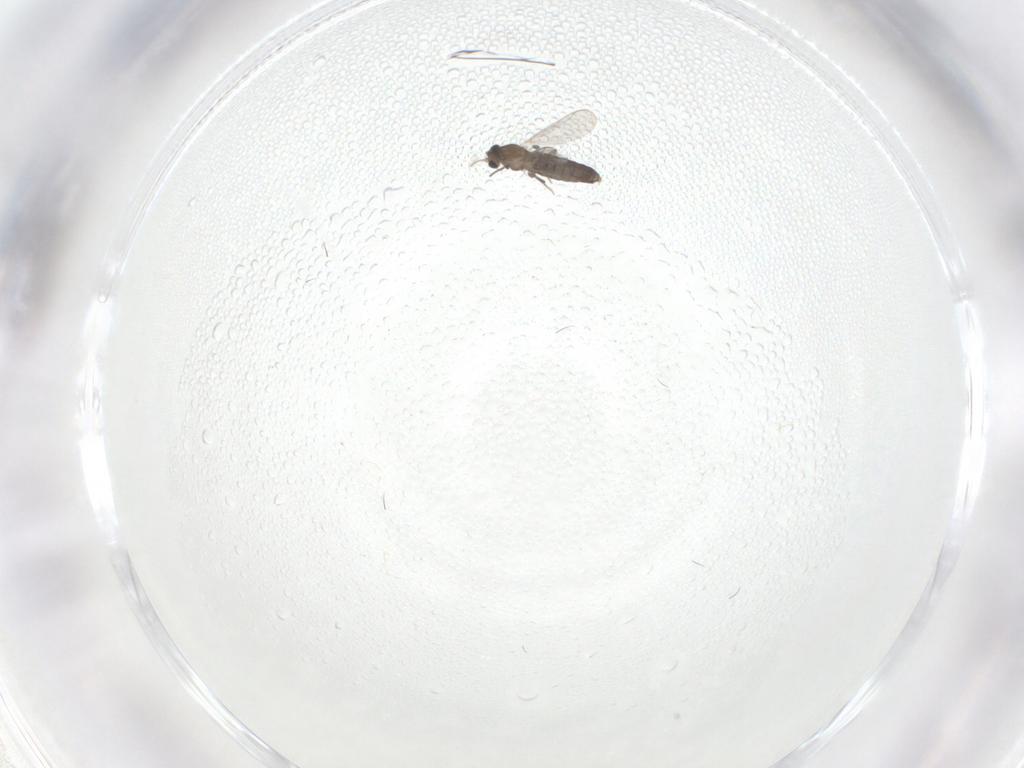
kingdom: Animalia
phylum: Arthropoda
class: Insecta
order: Diptera
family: Sciaridae
